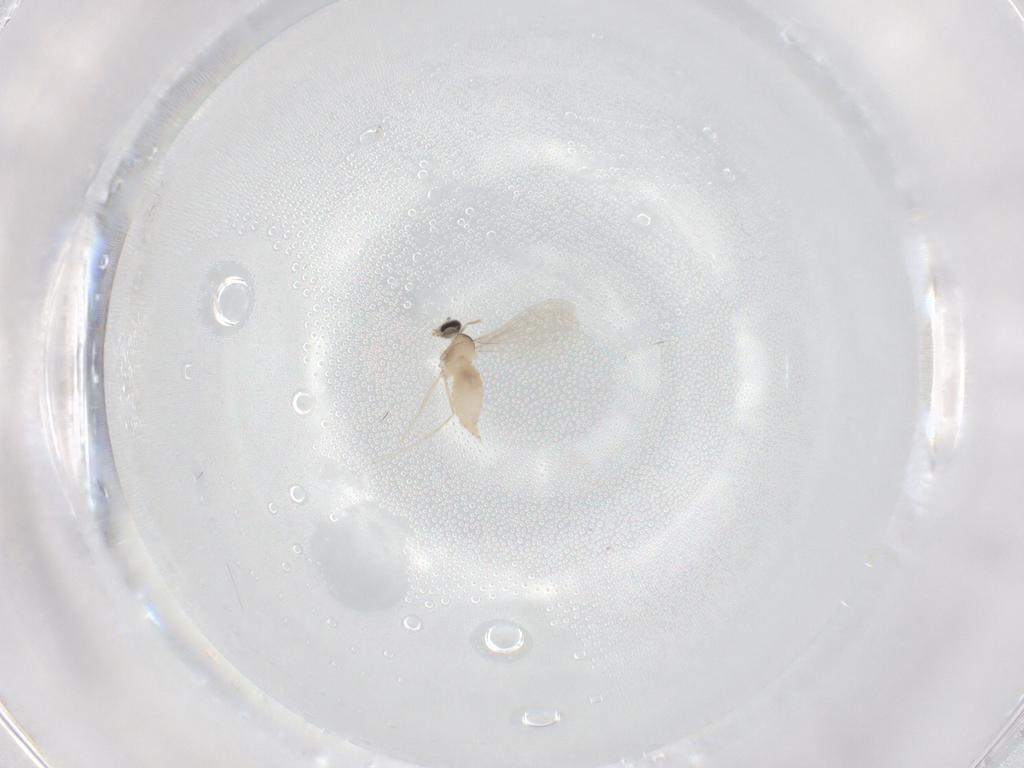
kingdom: Animalia
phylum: Arthropoda
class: Insecta
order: Diptera
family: Cecidomyiidae
